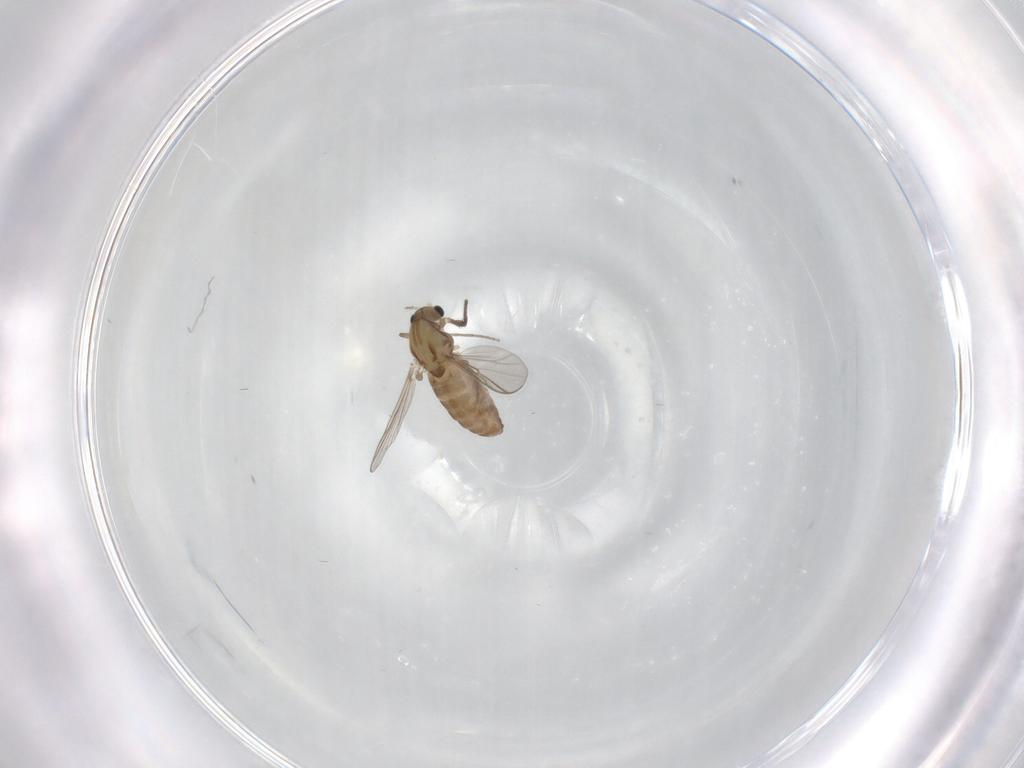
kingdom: Animalia
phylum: Arthropoda
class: Insecta
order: Diptera
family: Chironomidae
